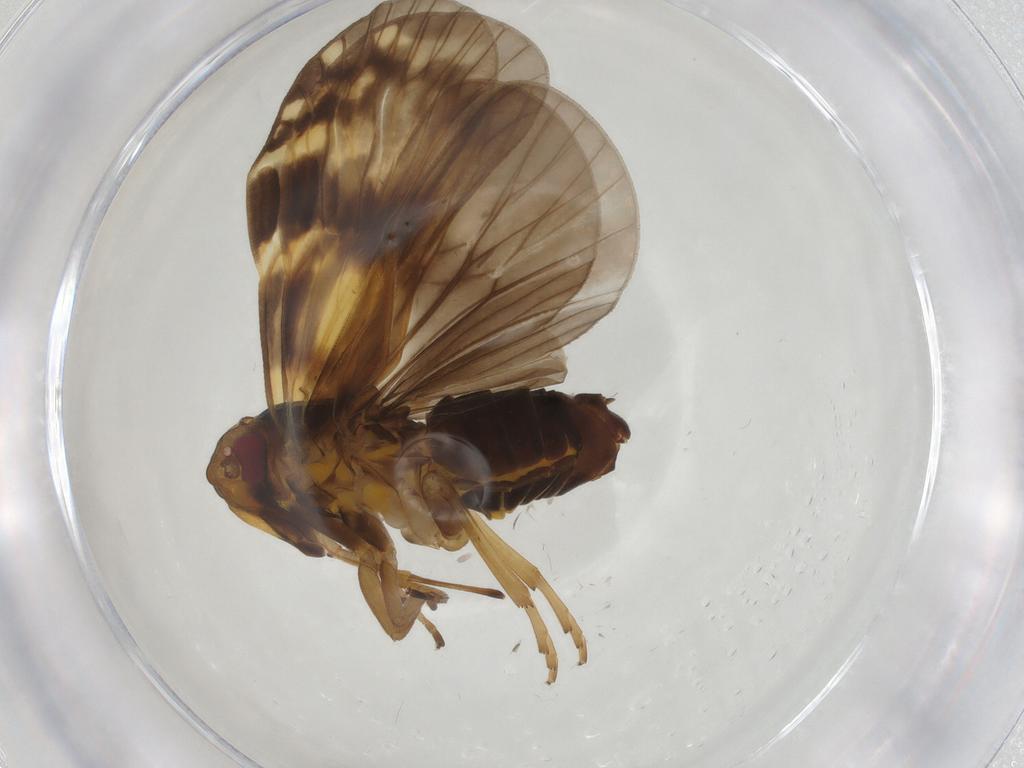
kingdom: Animalia
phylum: Arthropoda
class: Insecta
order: Hemiptera
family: Cixiidae
